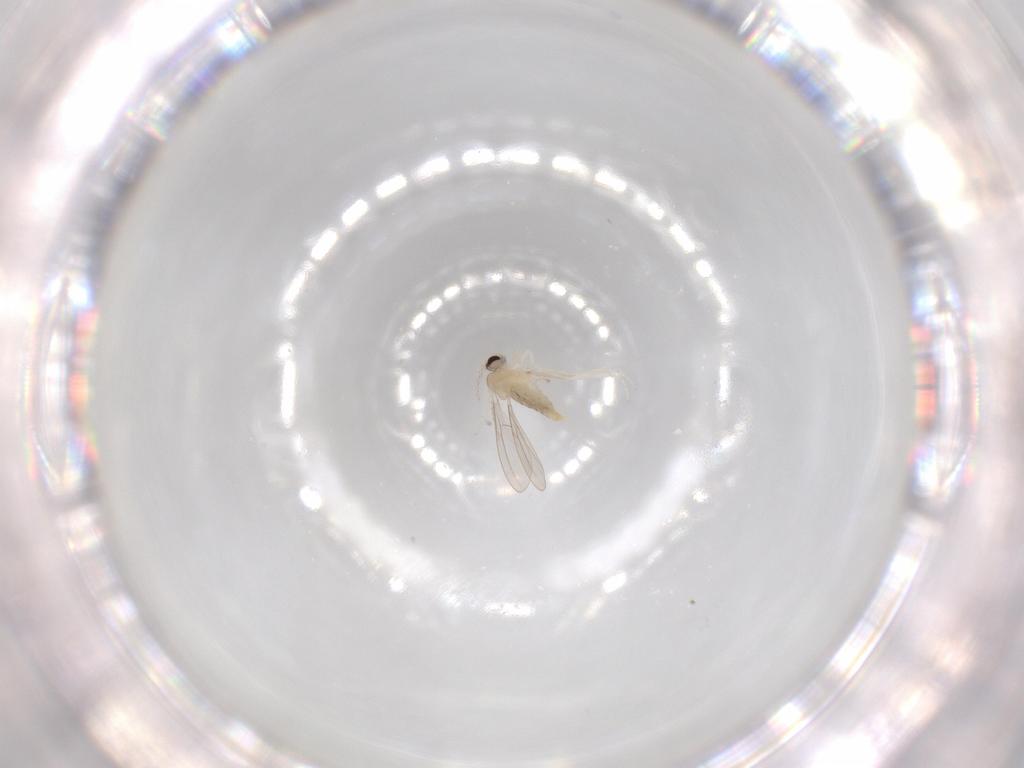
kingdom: Animalia
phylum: Arthropoda
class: Insecta
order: Diptera
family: Cecidomyiidae
